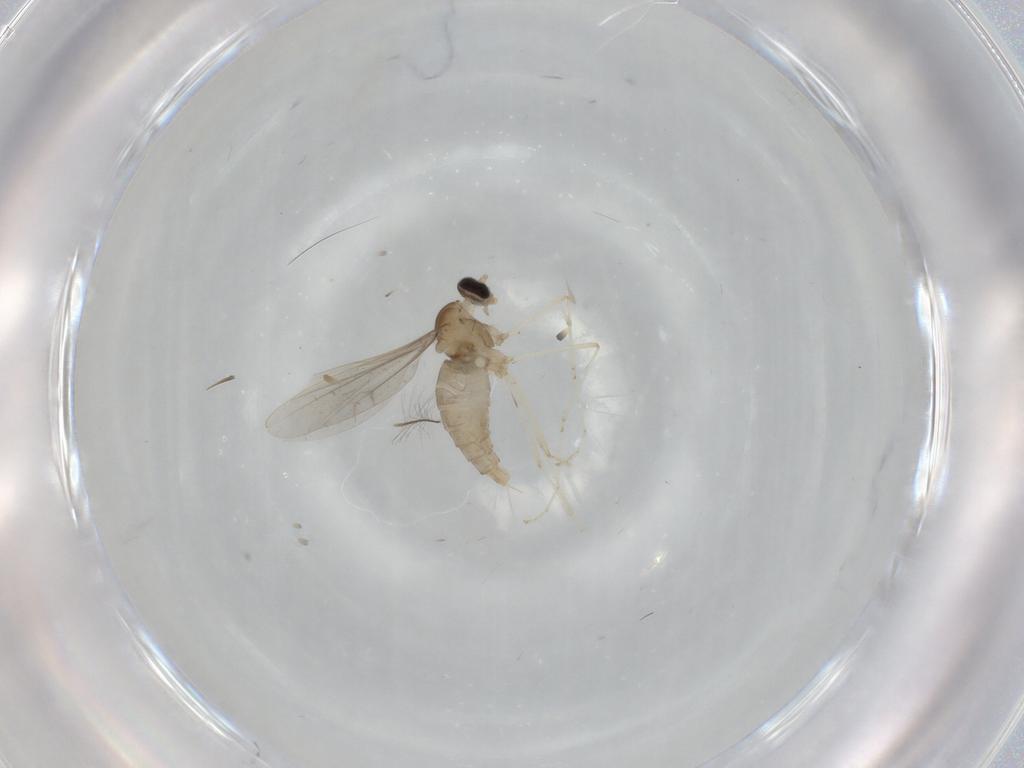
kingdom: Animalia
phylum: Arthropoda
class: Insecta
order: Diptera
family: Cecidomyiidae
